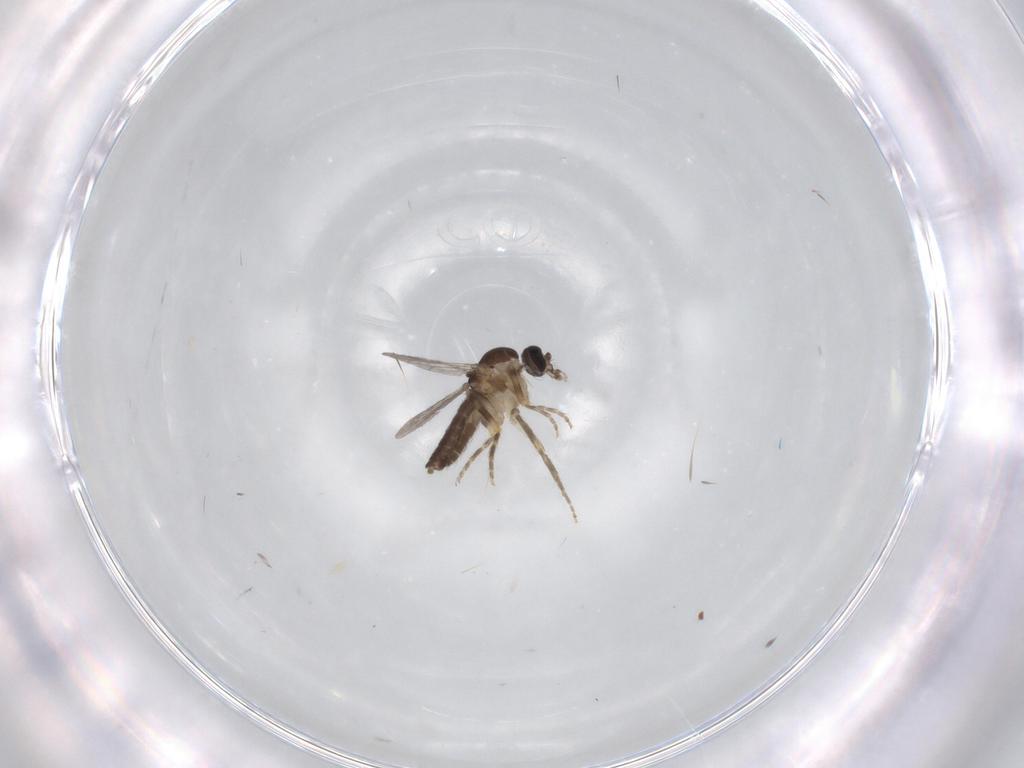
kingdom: Animalia
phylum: Arthropoda
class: Insecta
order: Diptera
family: Ceratopogonidae
